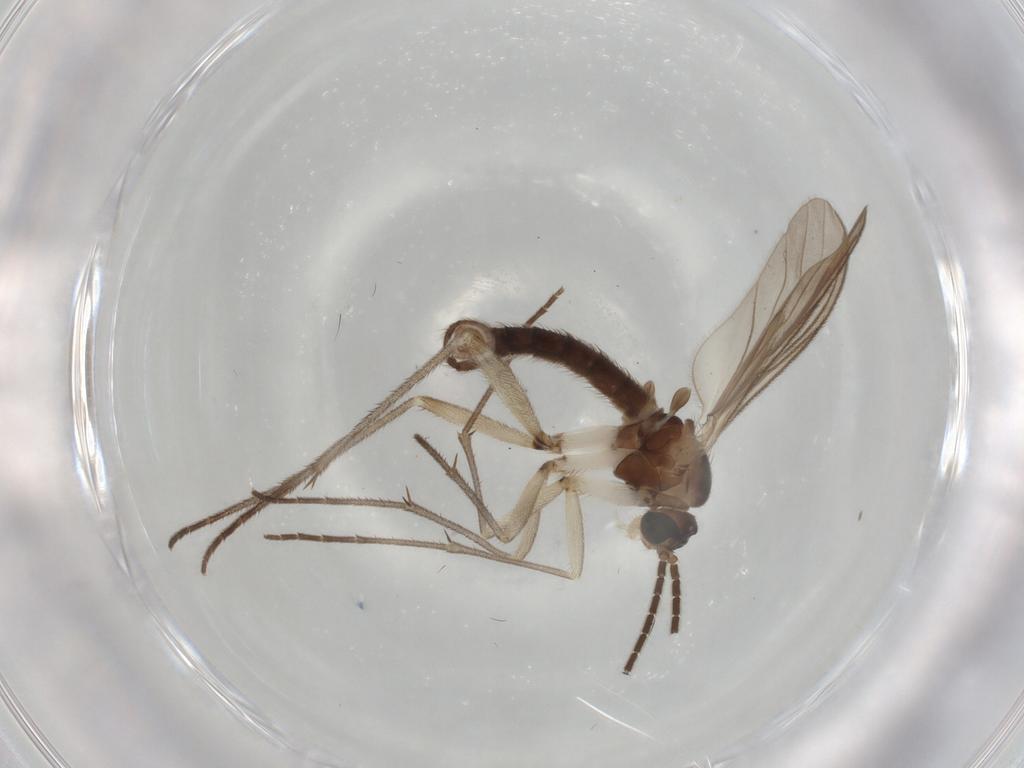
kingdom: Animalia
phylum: Arthropoda
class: Insecta
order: Diptera
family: Sciaridae
